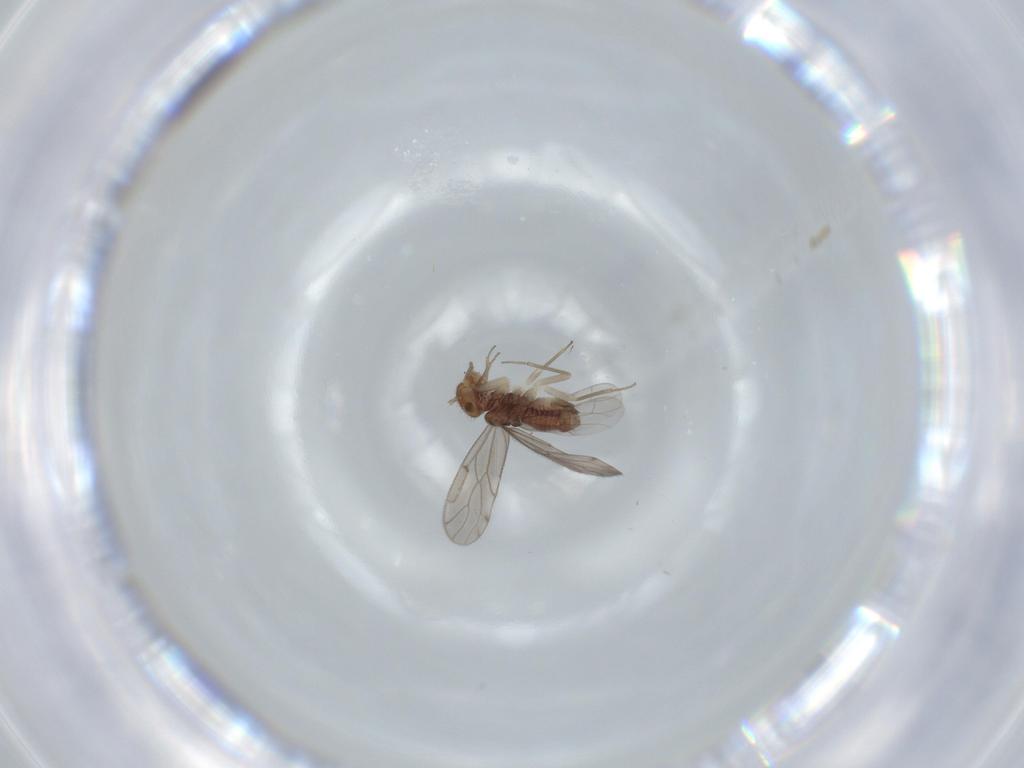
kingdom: Animalia
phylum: Arthropoda
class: Insecta
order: Psocodea
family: Ectopsocidae
